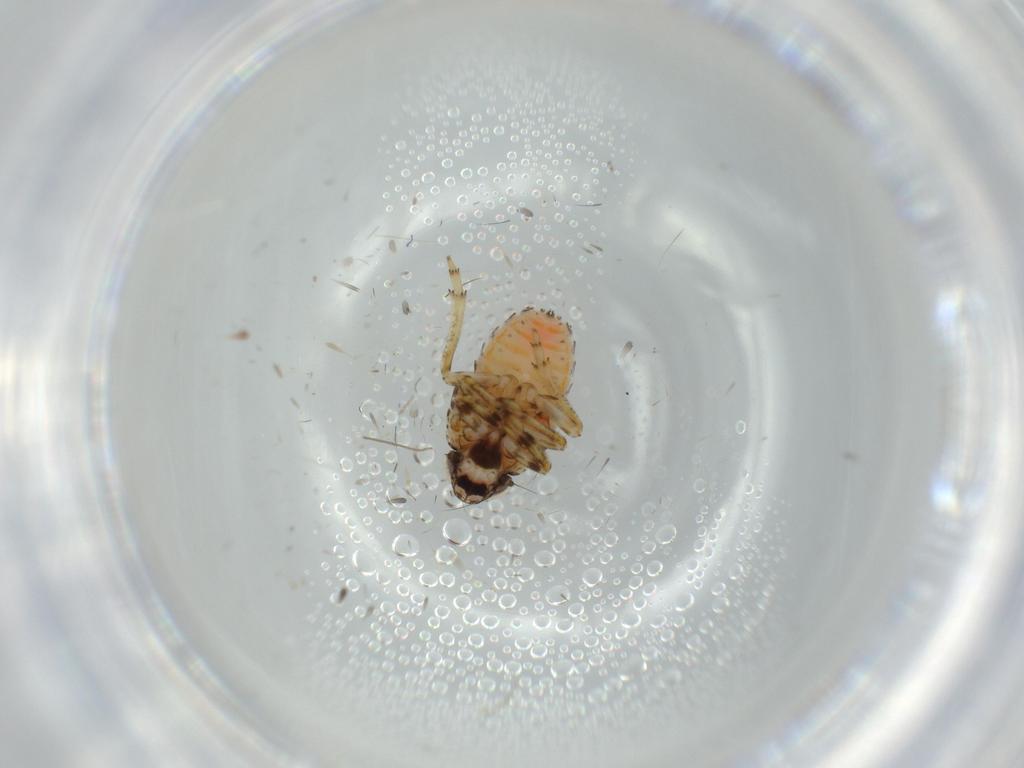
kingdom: Animalia
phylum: Arthropoda
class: Insecta
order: Hemiptera
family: Issidae
